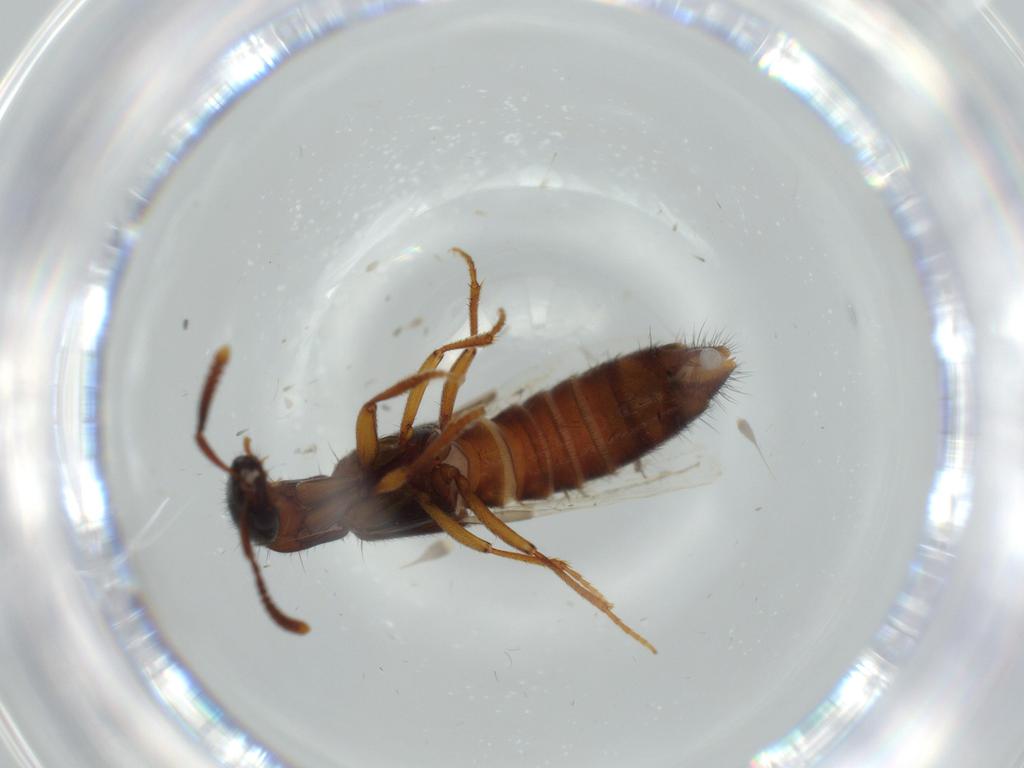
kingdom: Animalia
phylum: Arthropoda
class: Insecta
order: Coleoptera
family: Staphylinidae
